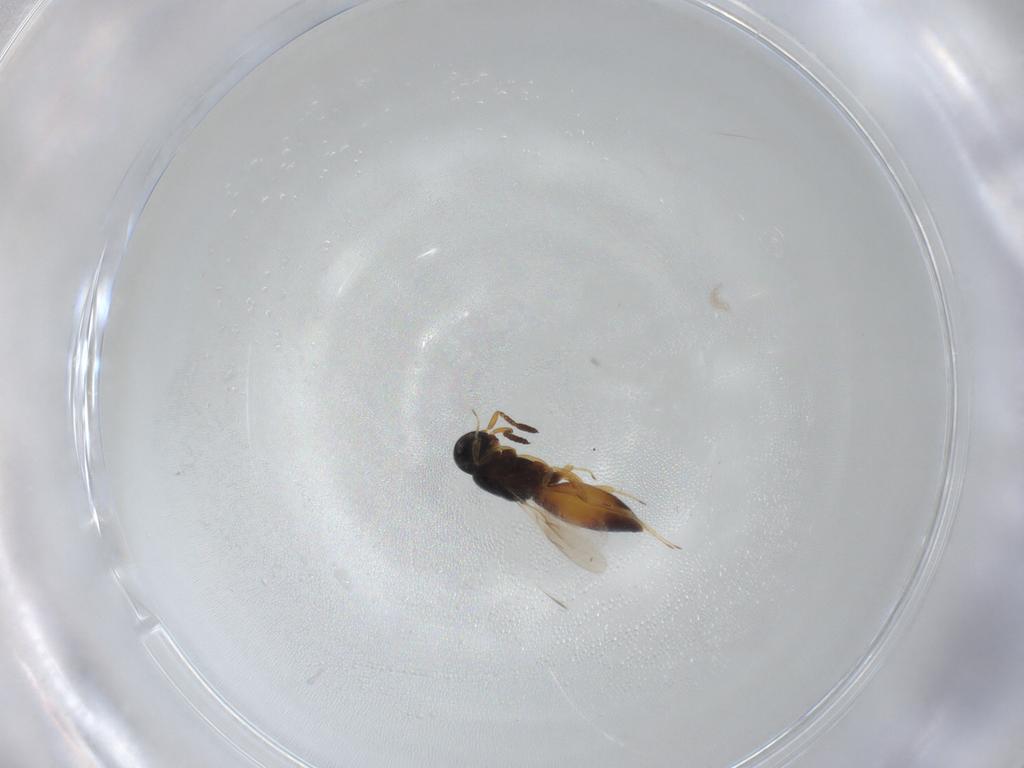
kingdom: Animalia
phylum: Arthropoda
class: Insecta
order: Hymenoptera
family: Scelionidae
